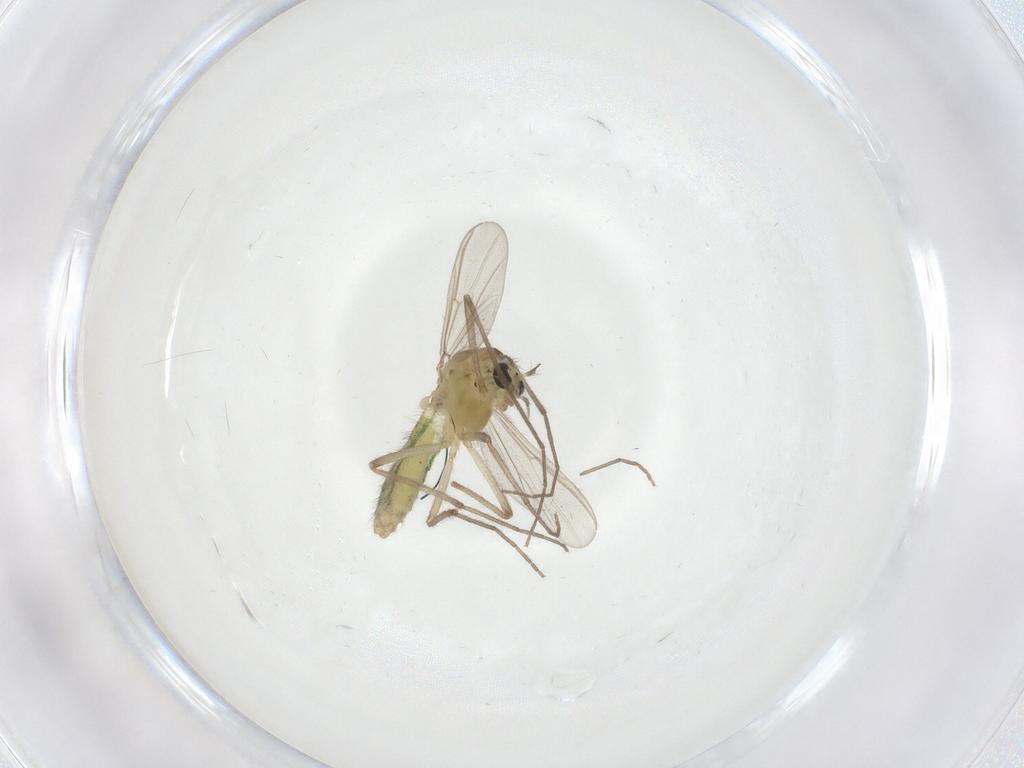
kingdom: Animalia
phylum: Arthropoda
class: Insecta
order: Diptera
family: Chironomidae
